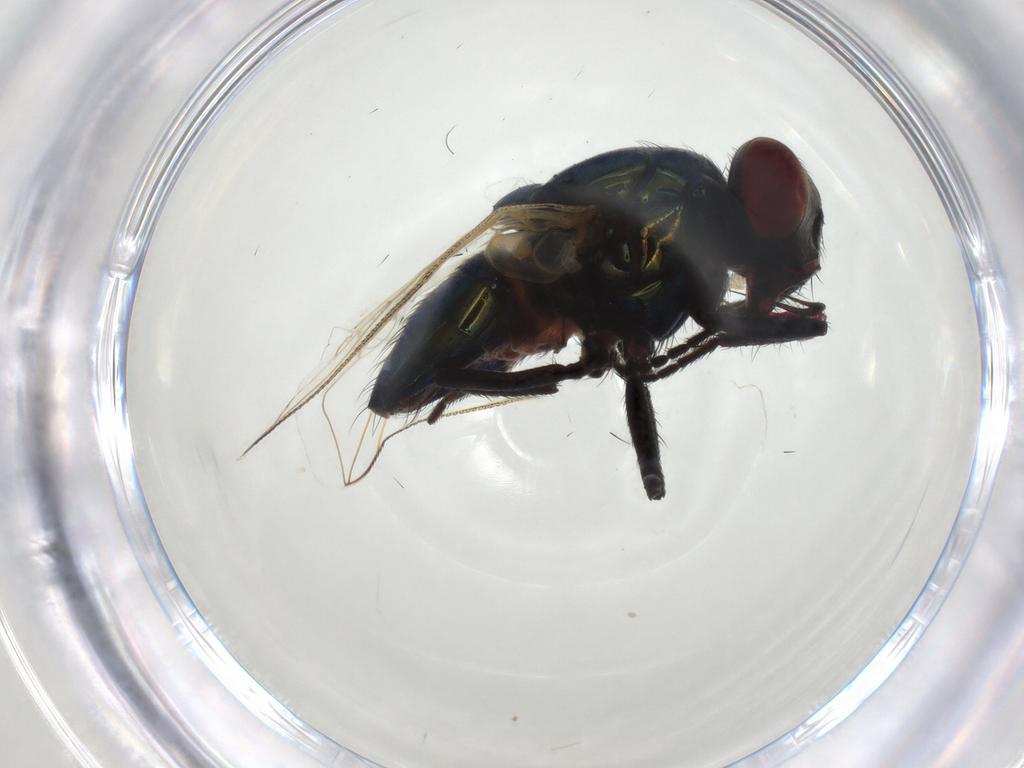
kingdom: Animalia
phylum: Arthropoda
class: Insecta
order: Diptera
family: Muscidae
